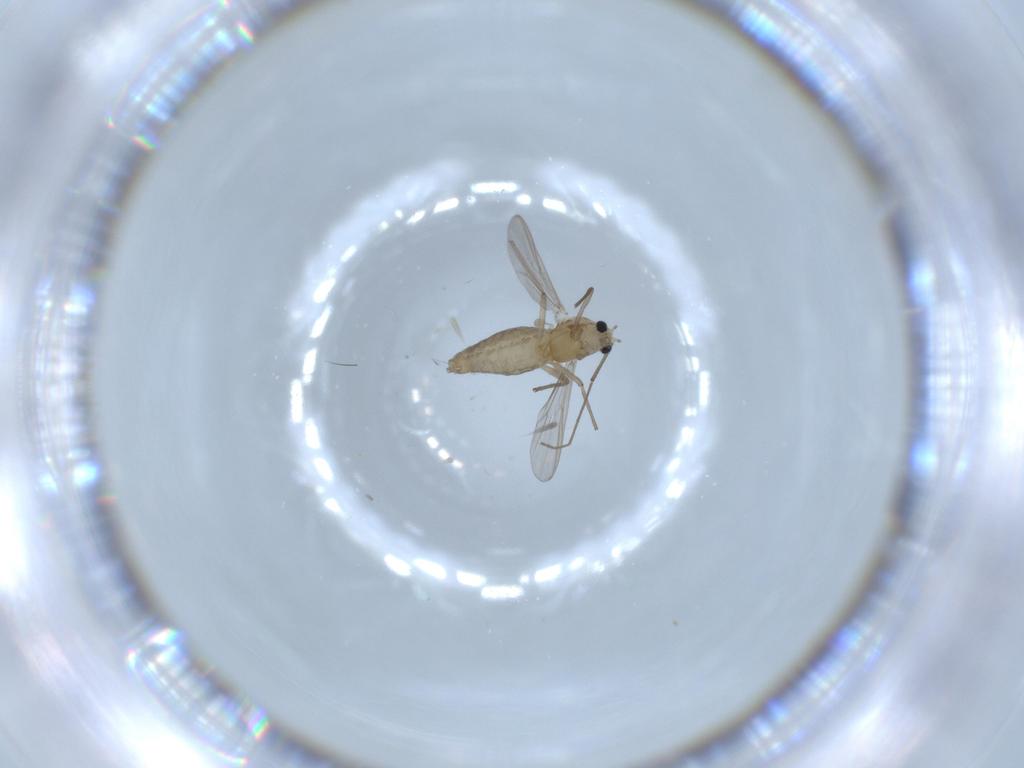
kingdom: Animalia
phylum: Arthropoda
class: Insecta
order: Diptera
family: Chironomidae
